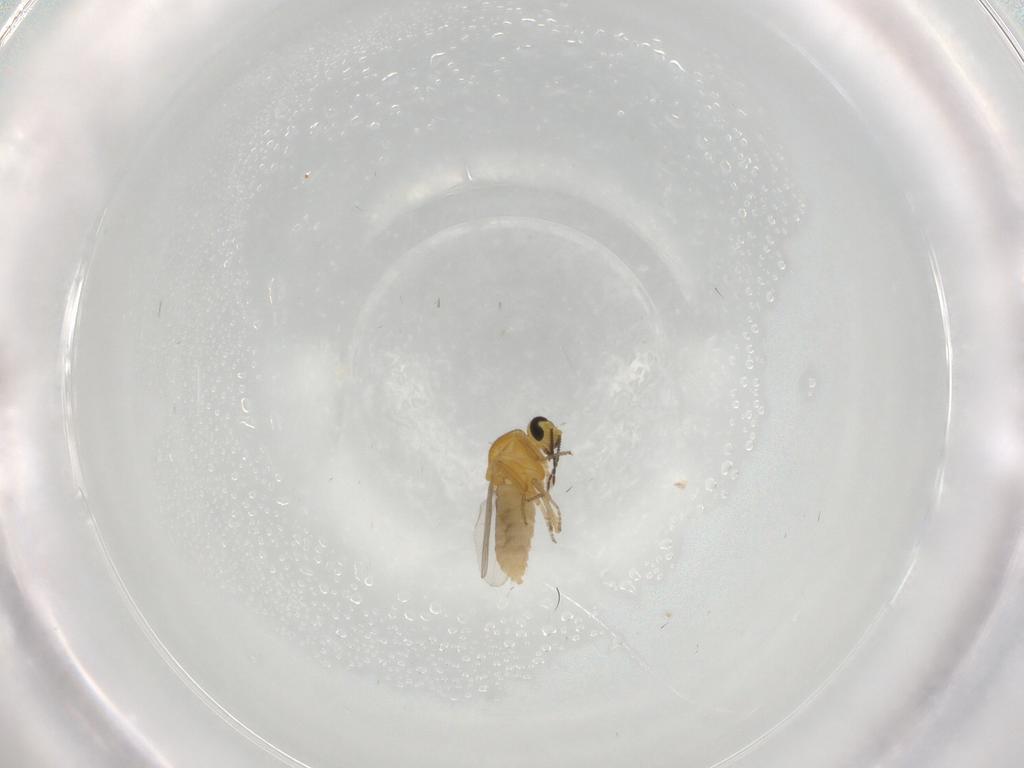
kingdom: Animalia
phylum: Arthropoda
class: Insecta
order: Diptera
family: Ceratopogonidae
